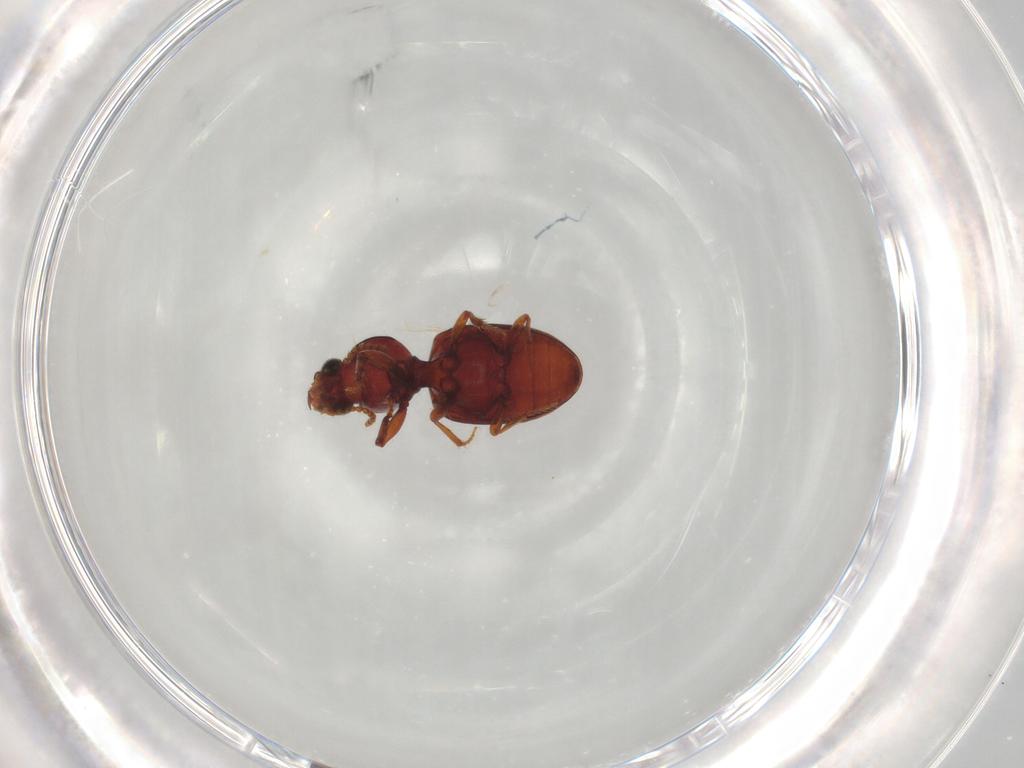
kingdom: Animalia
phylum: Arthropoda
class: Insecta
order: Coleoptera
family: Carabidae
